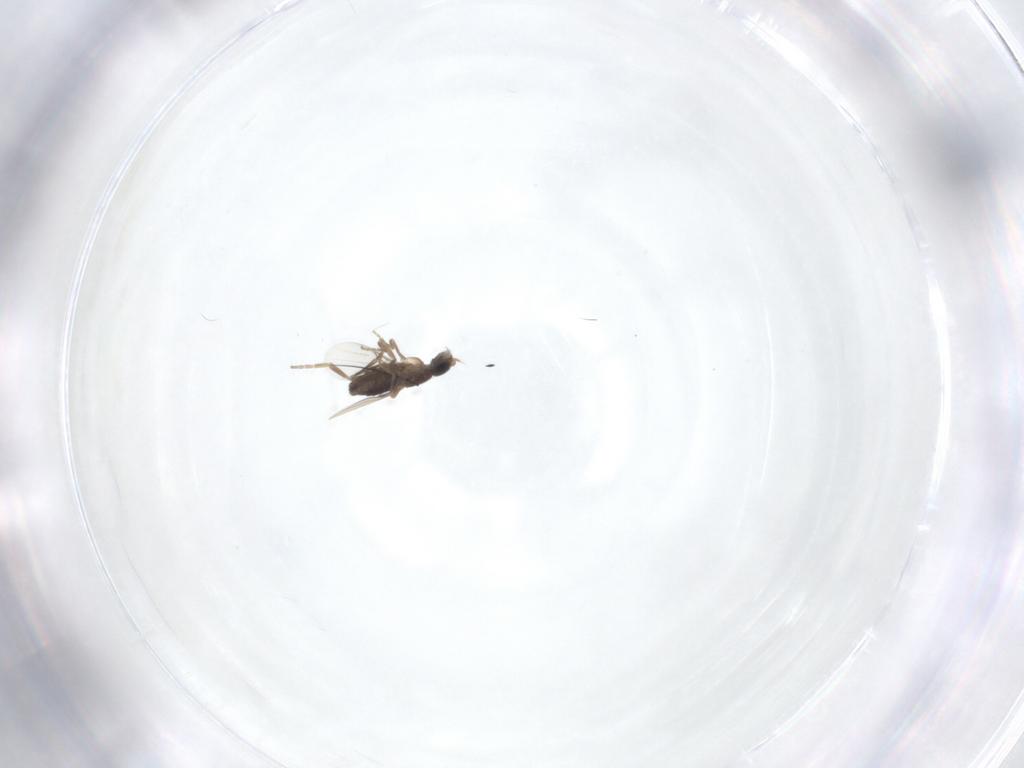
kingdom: Animalia
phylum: Arthropoda
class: Insecta
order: Diptera
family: Phoridae
